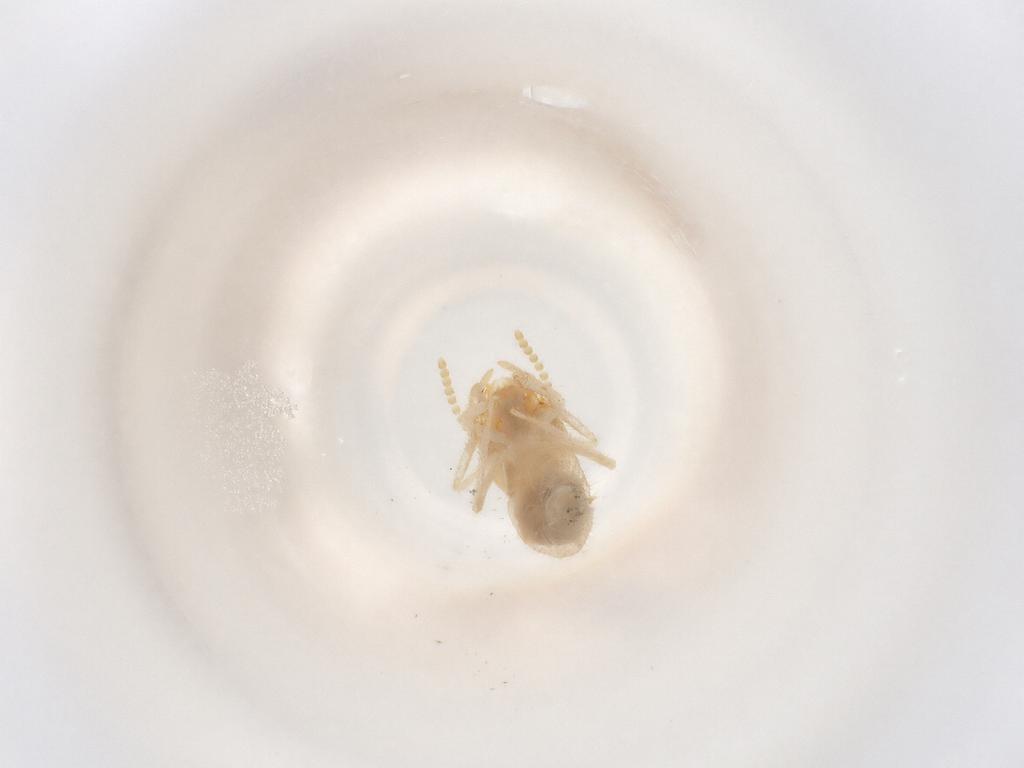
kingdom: Animalia
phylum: Arthropoda
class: Insecta
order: Blattodea
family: Termitidae
